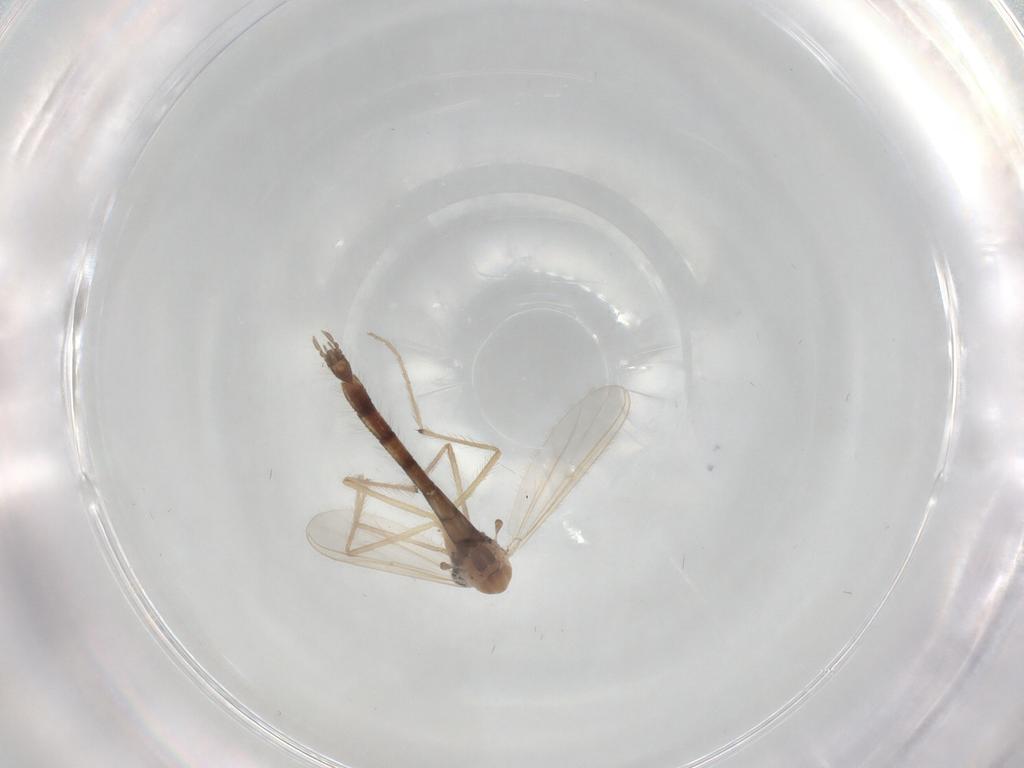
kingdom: Animalia
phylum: Arthropoda
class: Insecta
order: Diptera
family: Chironomidae
